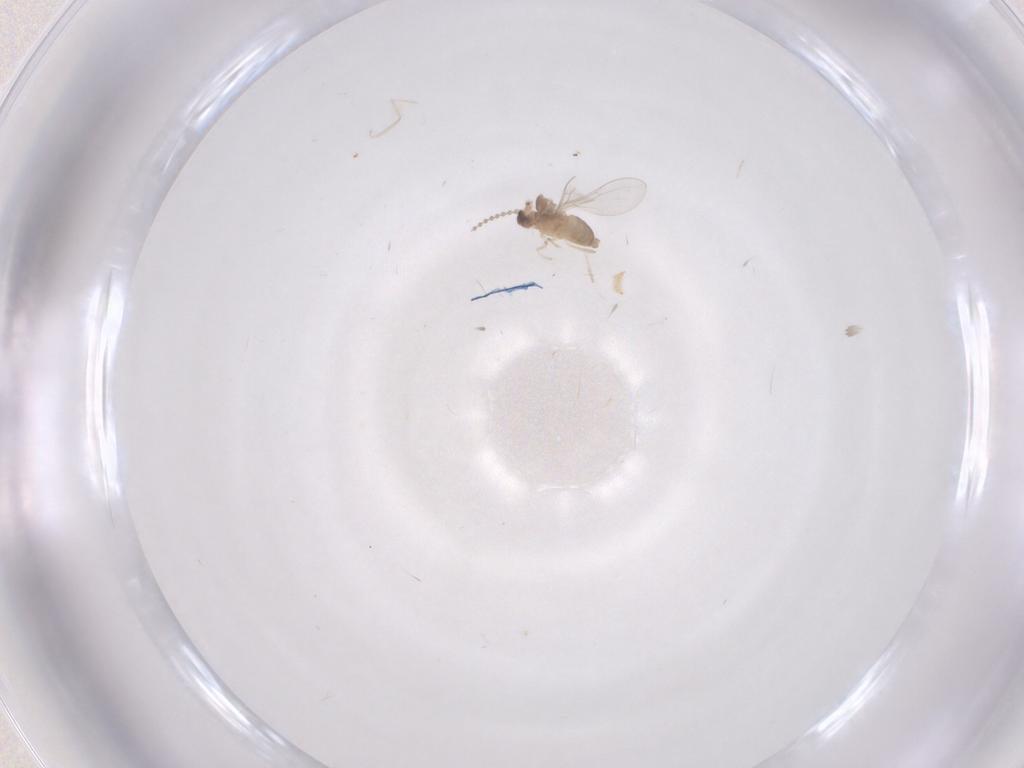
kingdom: Animalia
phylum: Arthropoda
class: Insecta
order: Diptera
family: Cecidomyiidae
